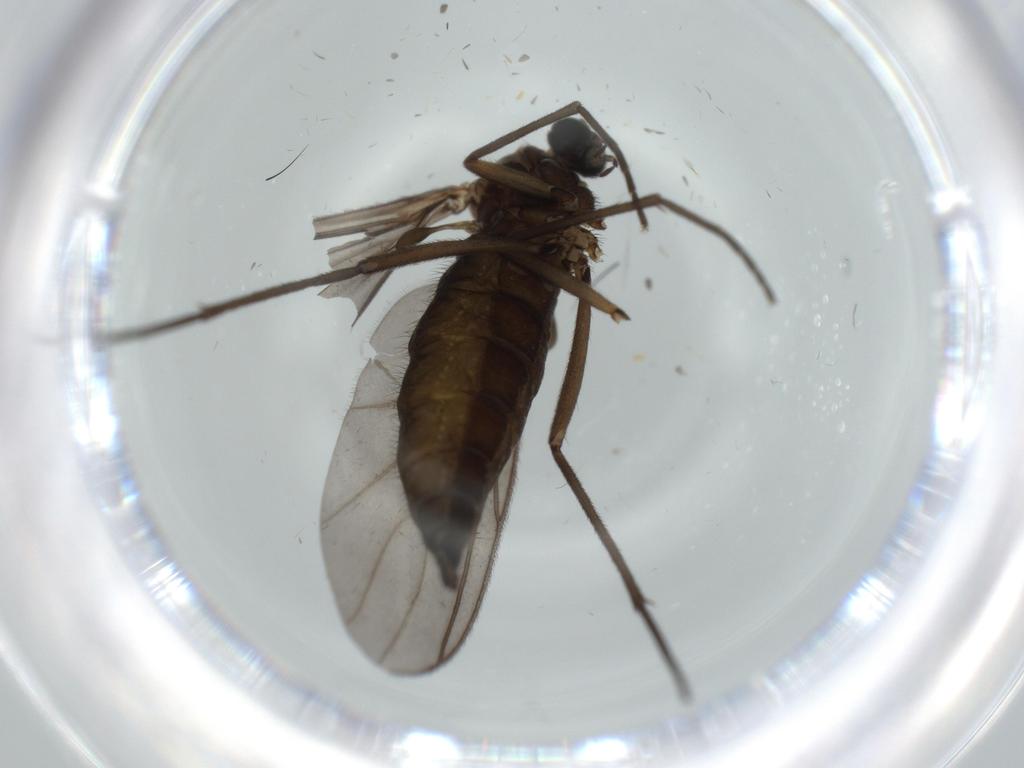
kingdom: Animalia
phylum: Arthropoda
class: Insecta
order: Diptera
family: Sciaridae
